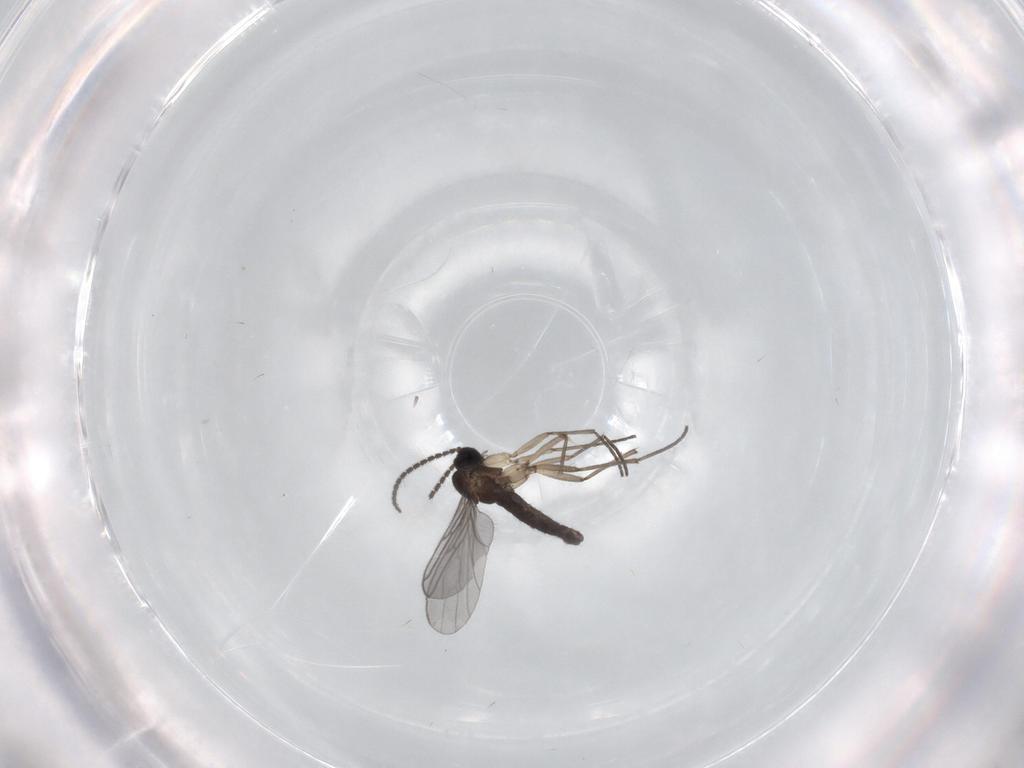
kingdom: Animalia
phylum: Arthropoda
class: Insecta
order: Diptera
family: Sciaridae
